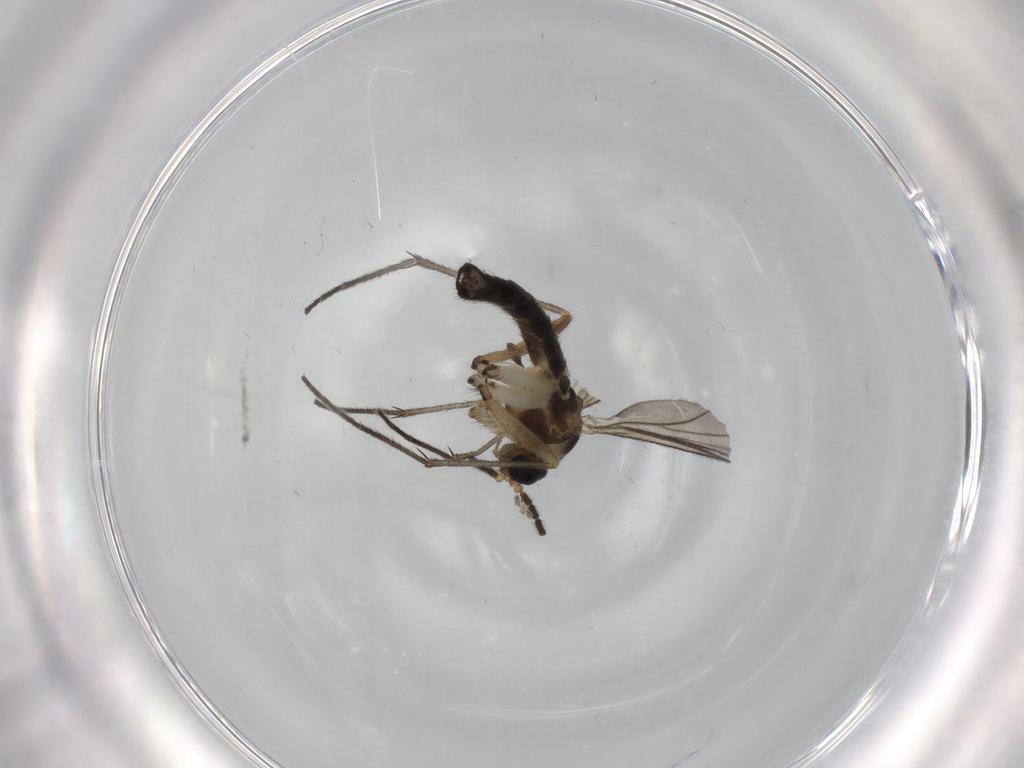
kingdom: Animalia
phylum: Arthropoda
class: Insecta
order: Diptera
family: Sciaridae
